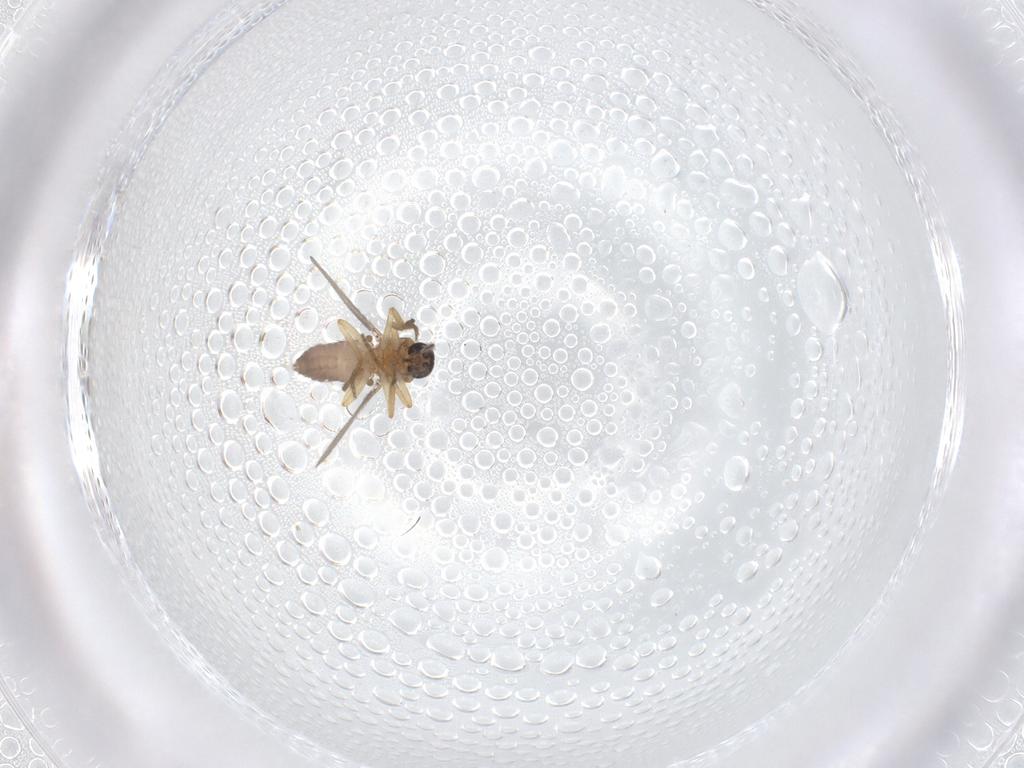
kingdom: Animalia
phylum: Arthropoda
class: Insecta
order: Diptera
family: Ceratopogonidae
